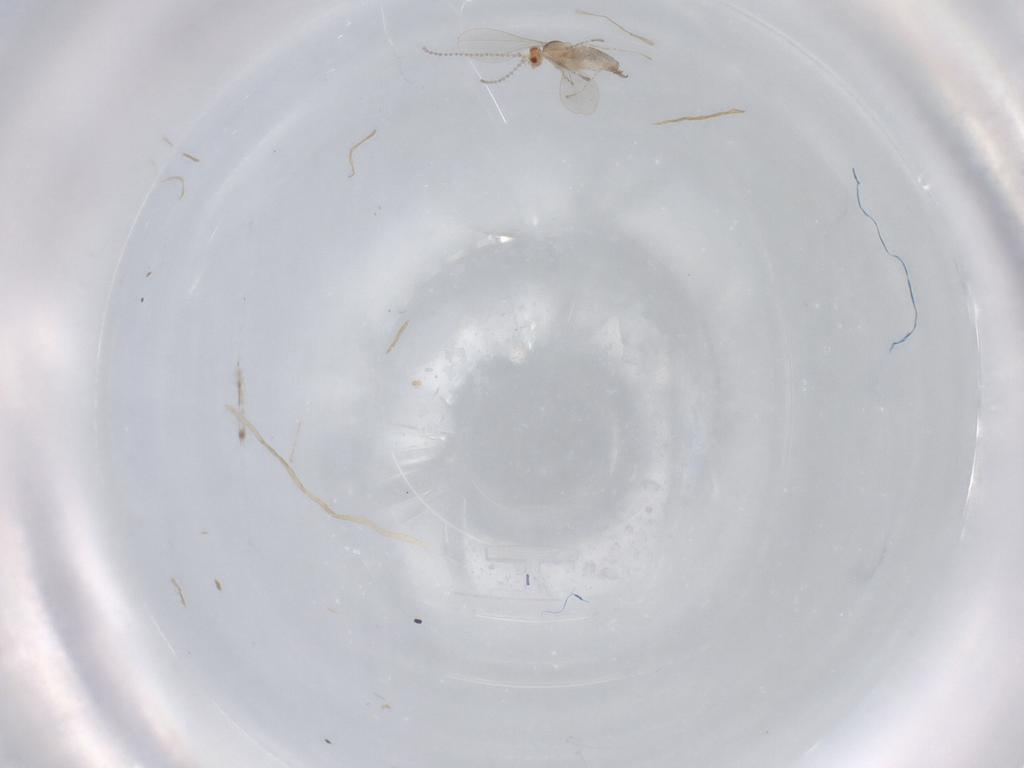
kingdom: Animalia
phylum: Arthropoda
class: Insecta
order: Diptera
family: Cecidomyiidae
